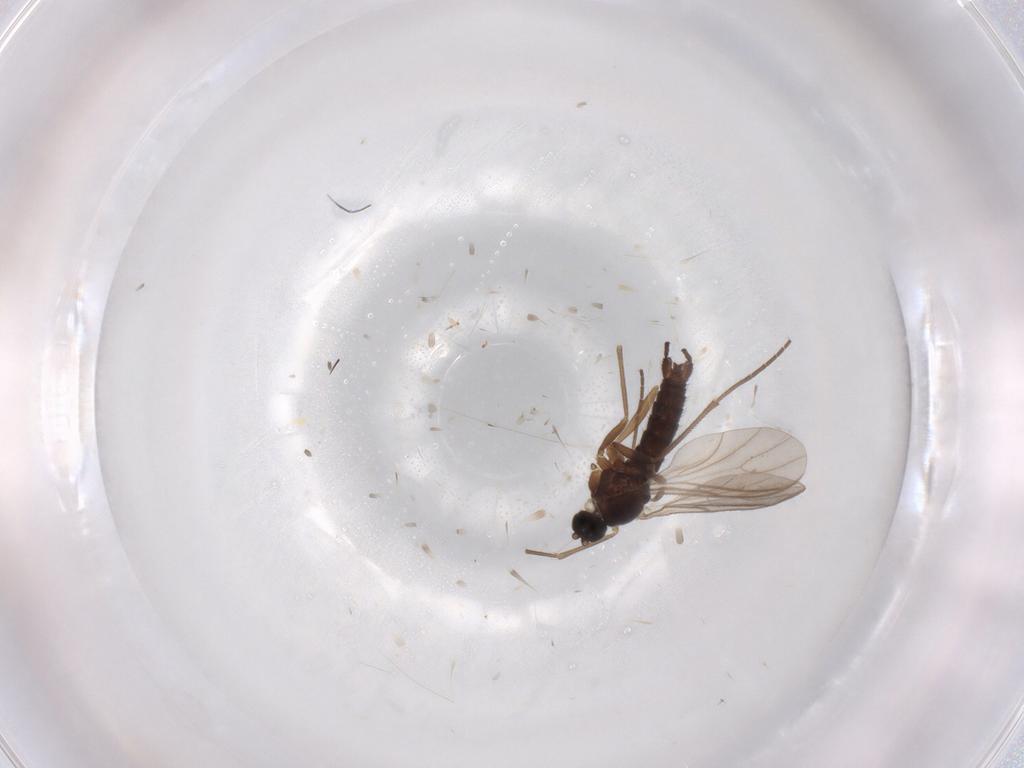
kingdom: Animalia
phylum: Arthropoda
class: Insecta
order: Diptera
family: Sciaridae
